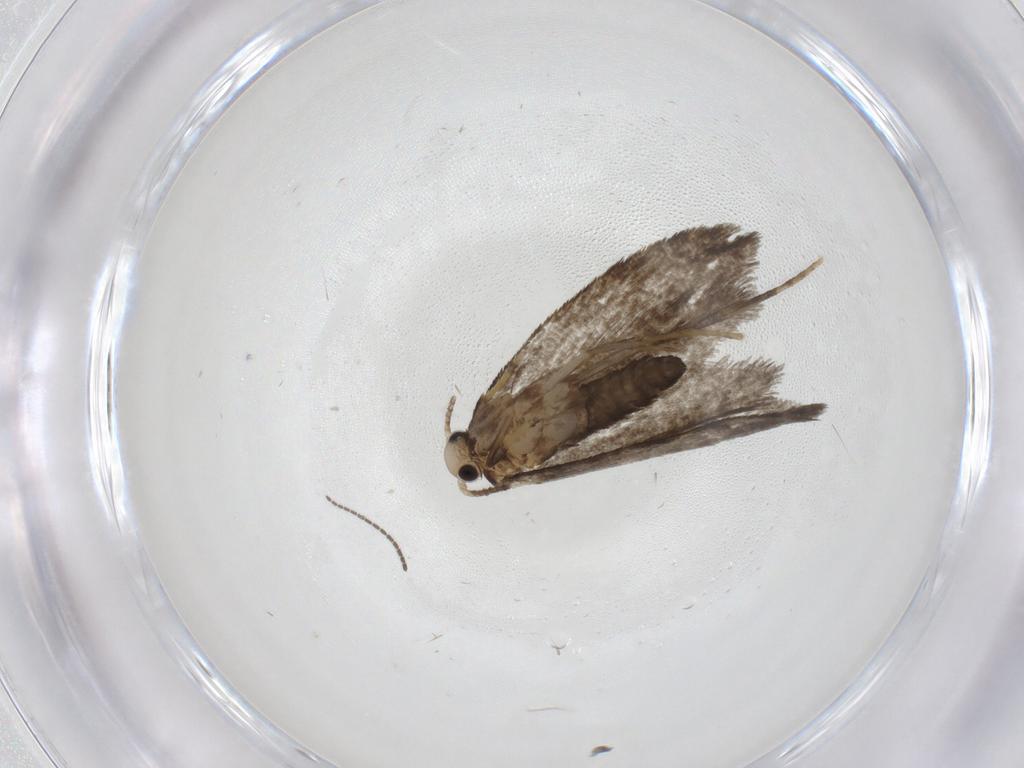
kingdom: Animalia
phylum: Arthropoda
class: Insecta
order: Lepidoptera
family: Psychidae
